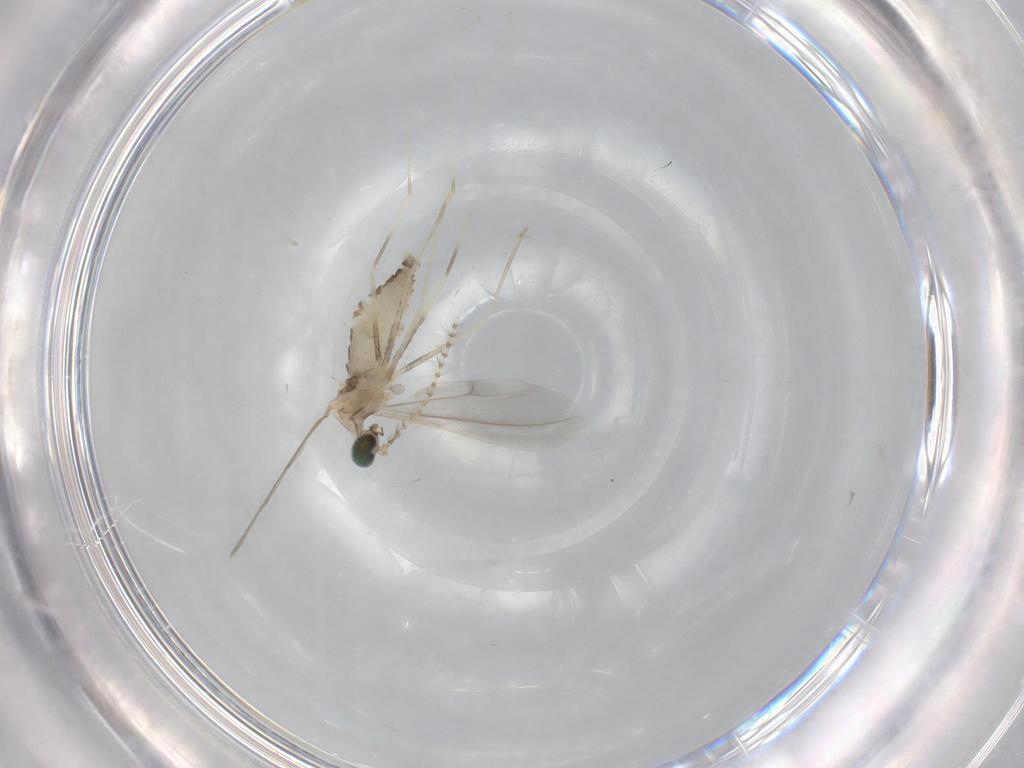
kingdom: Animalia
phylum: Arthropoda
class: Insecta
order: Diptera
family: Cecidomyiidae
